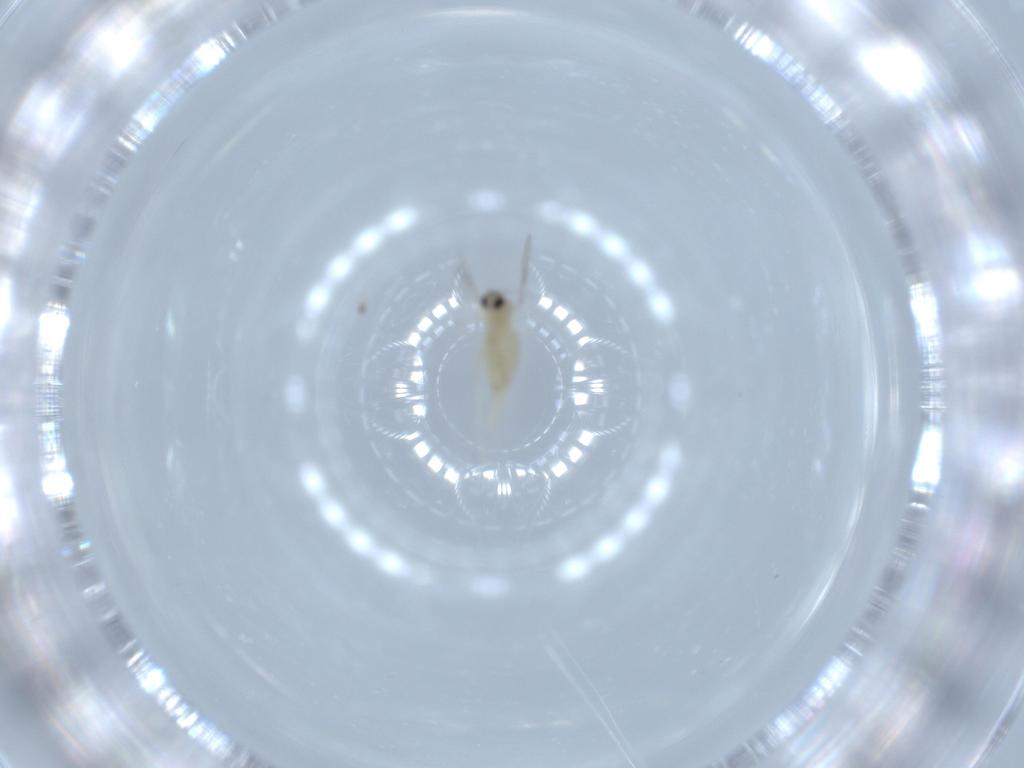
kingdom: Animalia
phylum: Arthropoda
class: Insecta
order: Diptera
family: Cecidomyiidae
